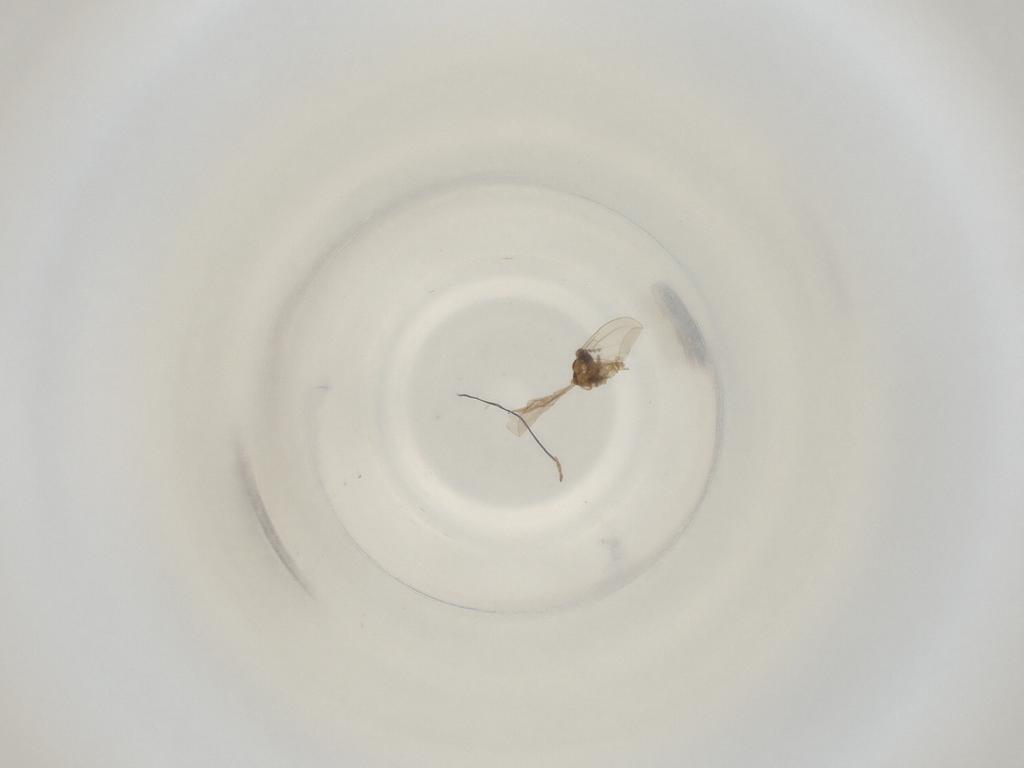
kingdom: Animalia
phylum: Arthropoda
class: Insecta
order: Diptera
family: Cecidomyiidae
